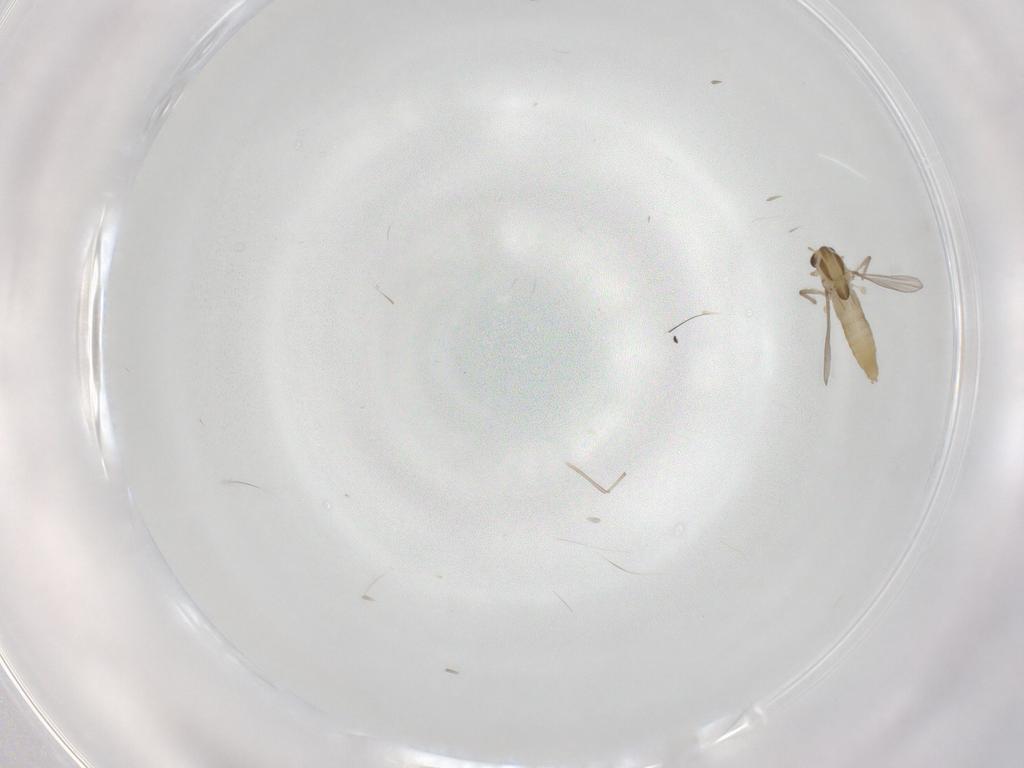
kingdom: Animalia
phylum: Arthropoda
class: Insecta
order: Diptera
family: Chironomidae
